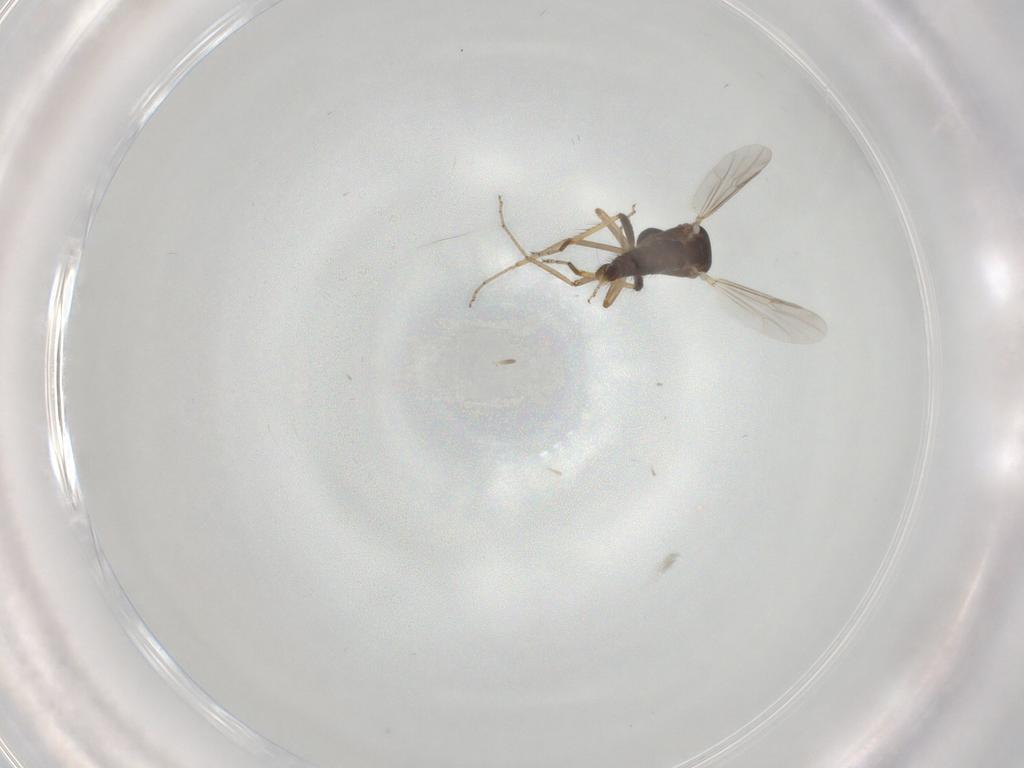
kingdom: Animalia
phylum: Arthropoda
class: Insecta
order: Diptera
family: Ceratopogonidae
